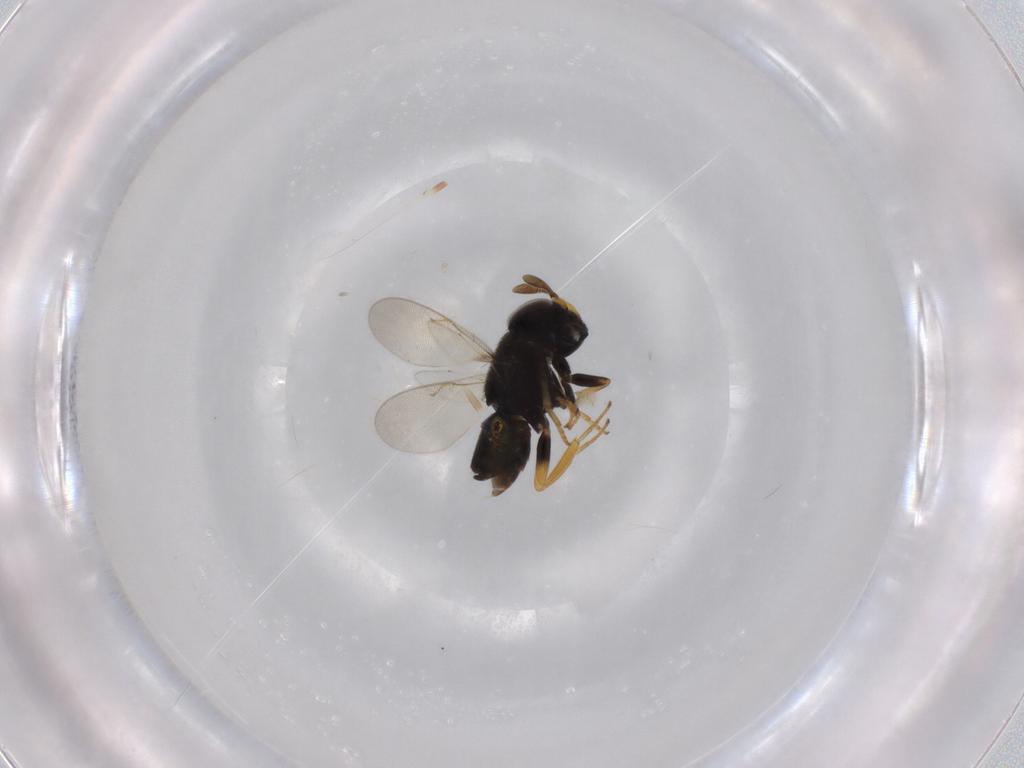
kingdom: Animalia
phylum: Arthropoda
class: Insecta
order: Hymenoptera
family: Encyrtidae
